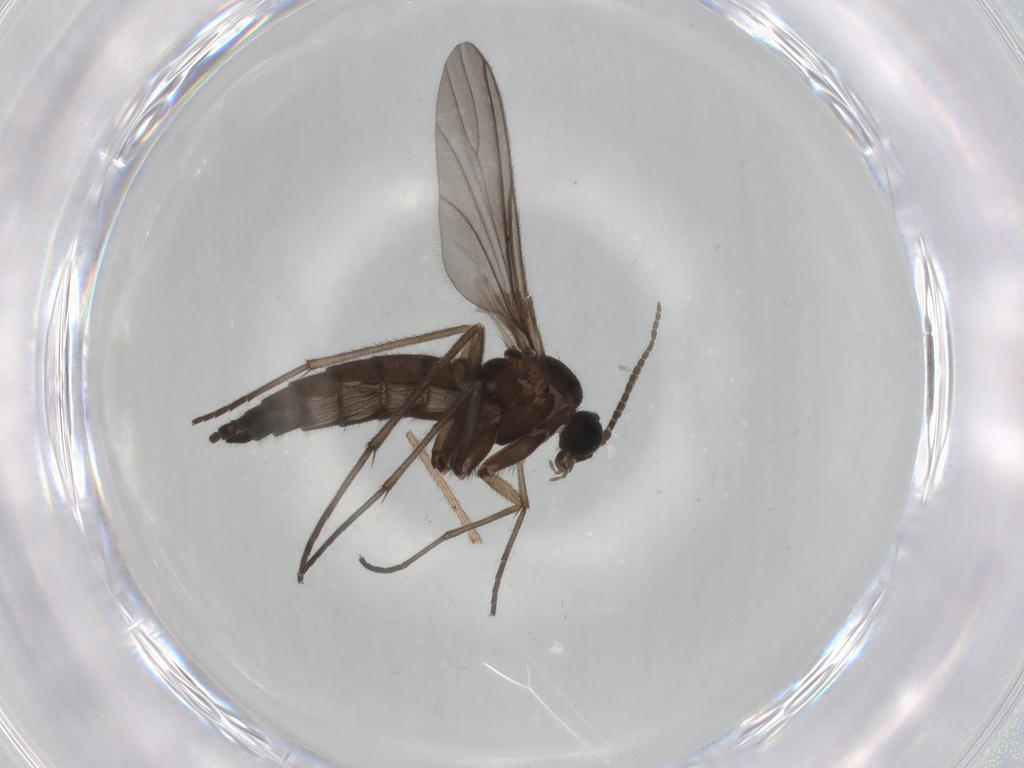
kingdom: Animalia
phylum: Arthropoda
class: Insecta
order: Diptera
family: Sciaridae
